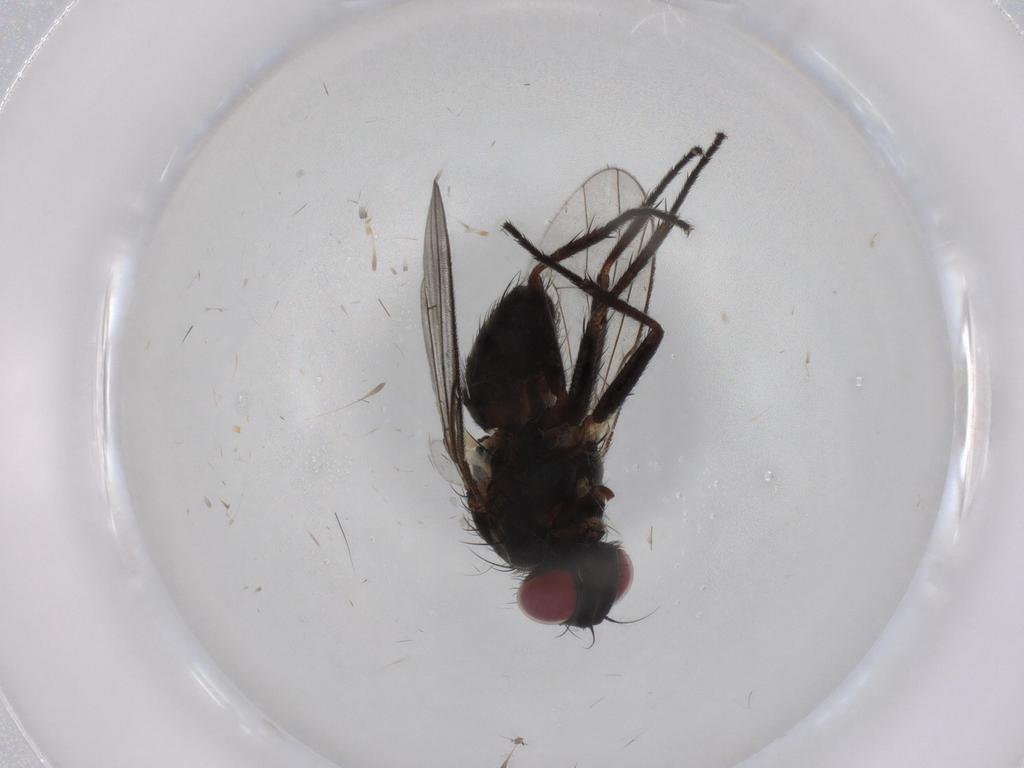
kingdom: Animalia
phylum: Arthropoda
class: Insecta
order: Diptera
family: Muscidae
